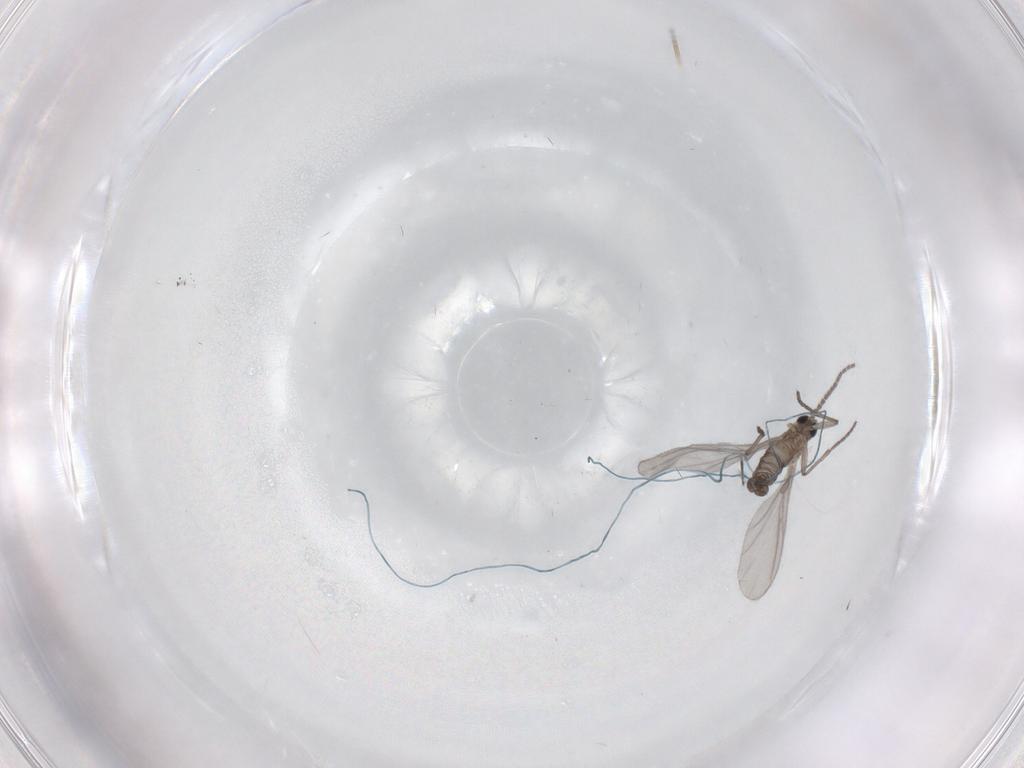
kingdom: Animalia
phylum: Arthropoda
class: Insecta
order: Diptera
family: Sciaridae
